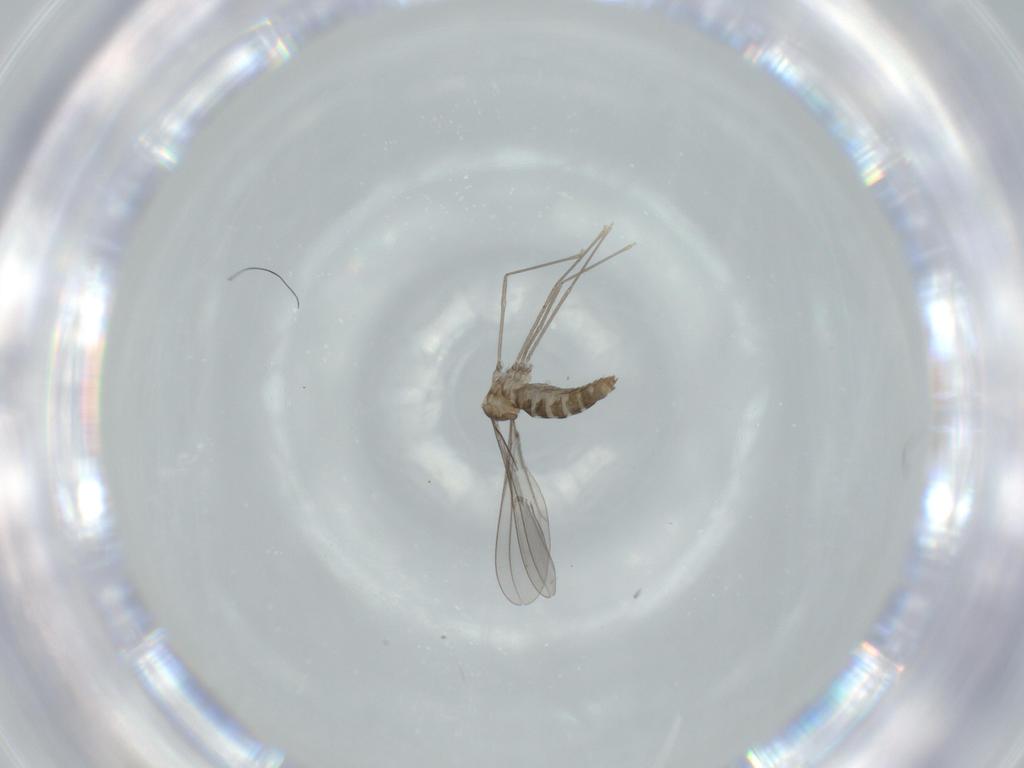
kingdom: Animalia
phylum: Arthropoda
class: Insecta
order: Diptera
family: Cecidomyiidae
